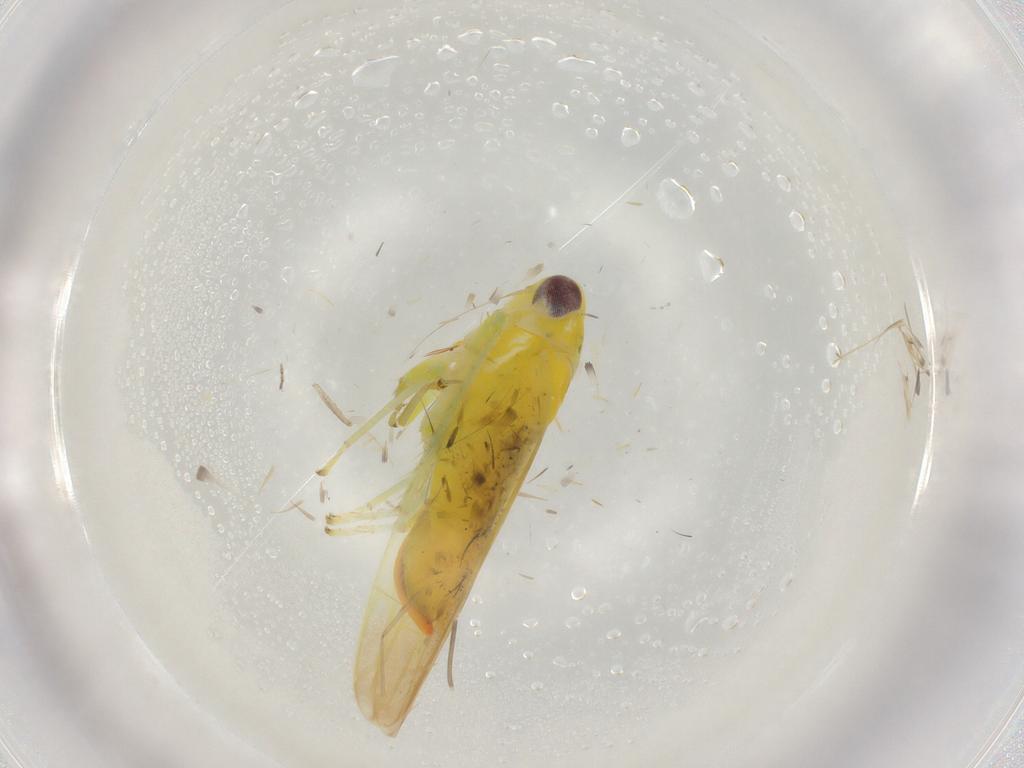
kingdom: Animalia
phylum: Arthropoda
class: Insecta
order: Hemiptera
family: Cicadellidae
